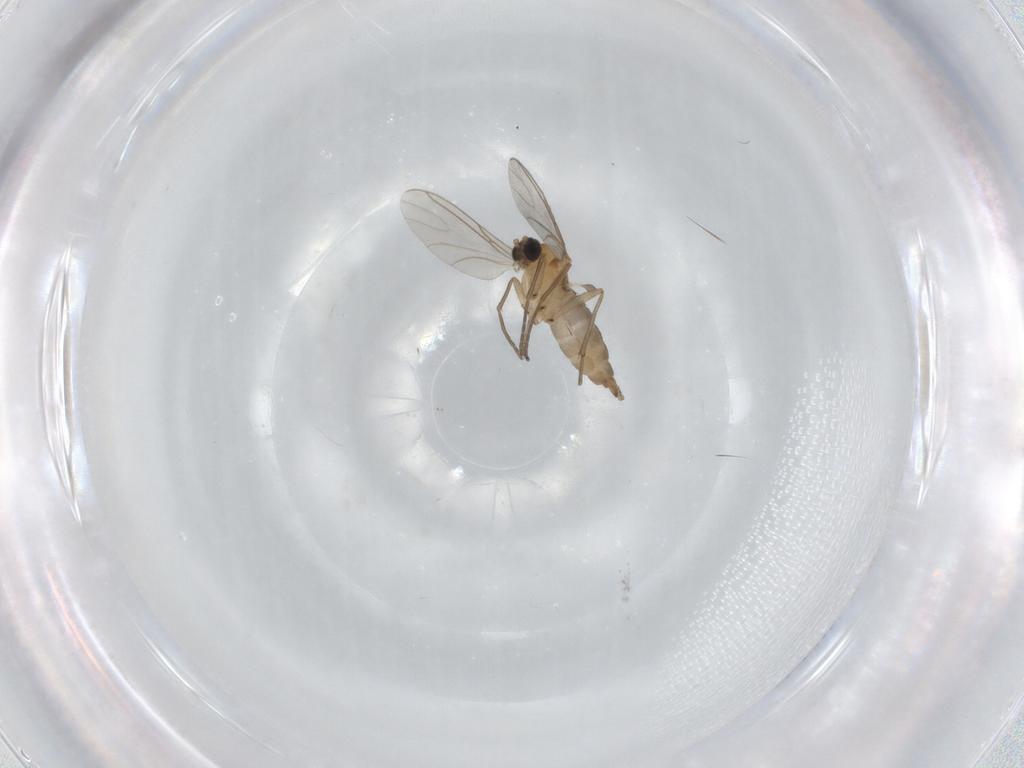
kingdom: Animalia
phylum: Arthropoda
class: Insecta
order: Diptera
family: Sciaridae
